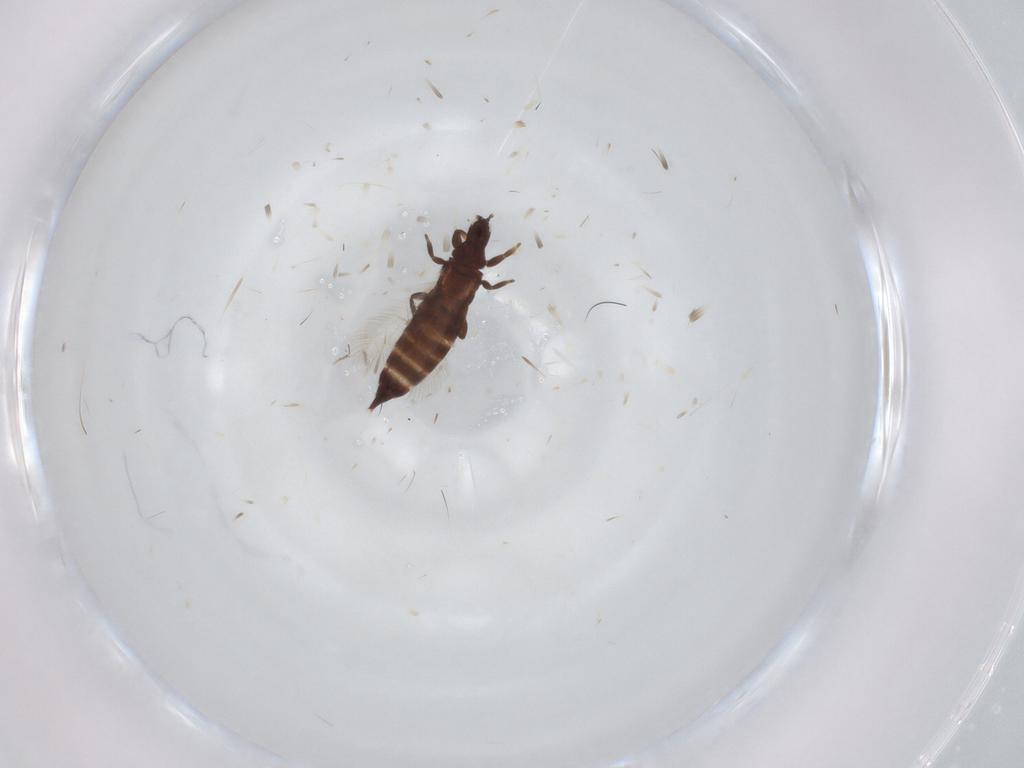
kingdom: Animalia
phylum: Arthropoda
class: Insecta
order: Thysanoptera
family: Phlaeothripidae
